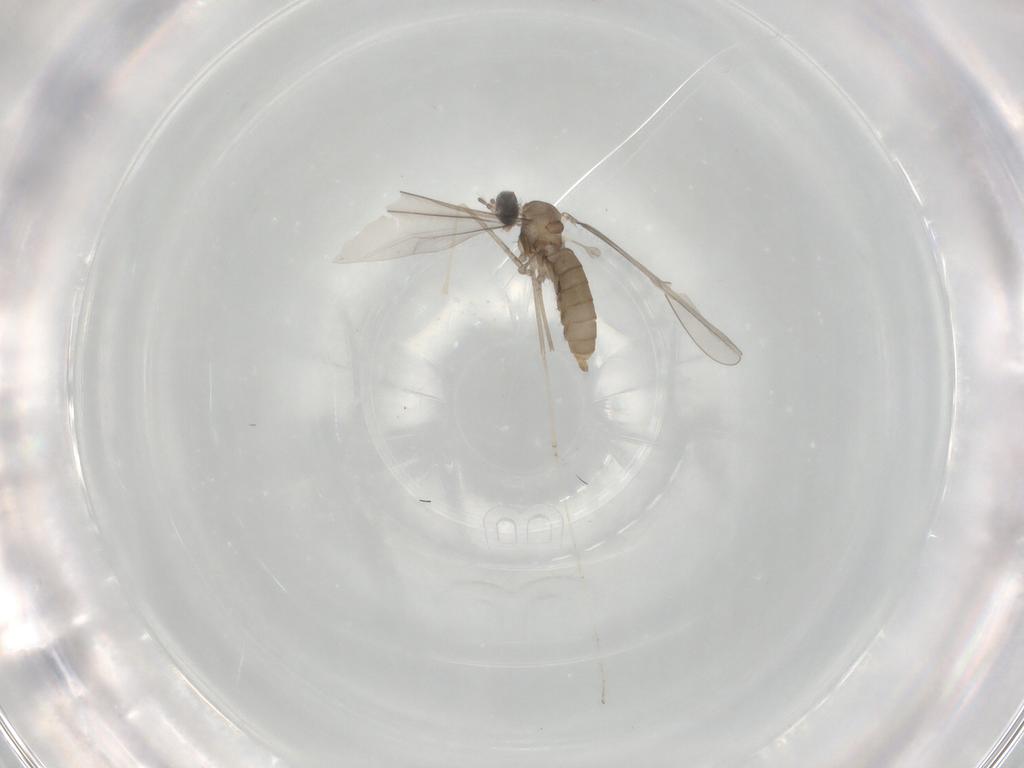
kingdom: Animalia
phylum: Arthropoda
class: Insecta
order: Diptera
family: Cecidomyiidae
